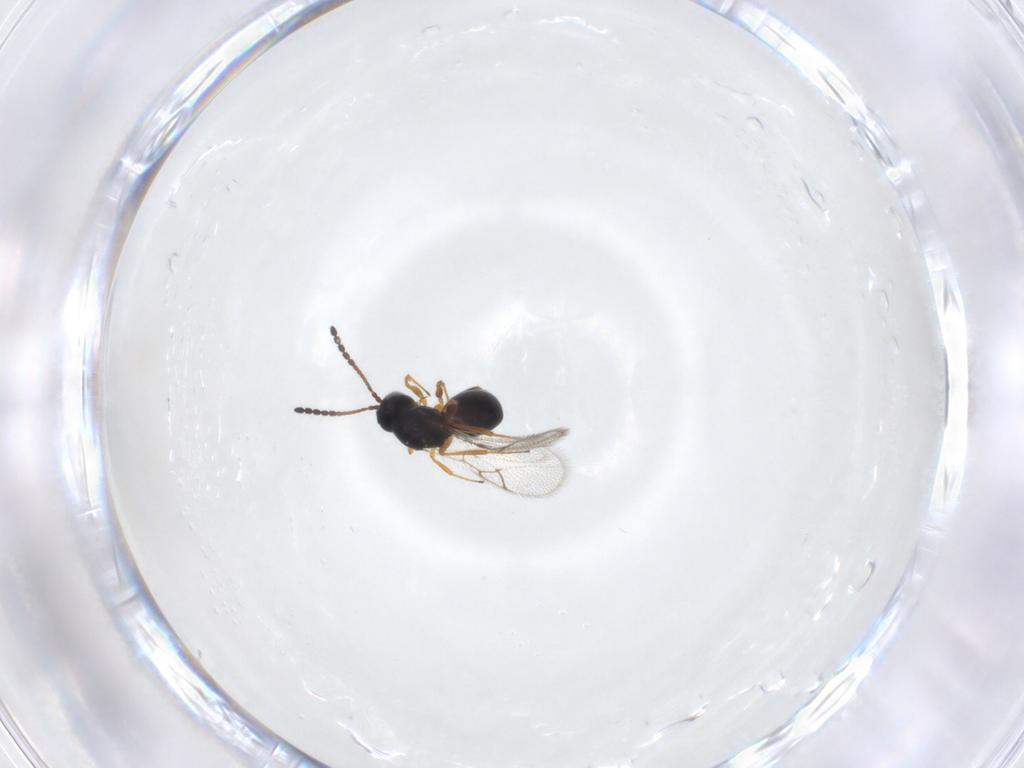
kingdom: Animalia
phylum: Arthropoda
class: Insecta
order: Hymenoptera
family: Figitidae
